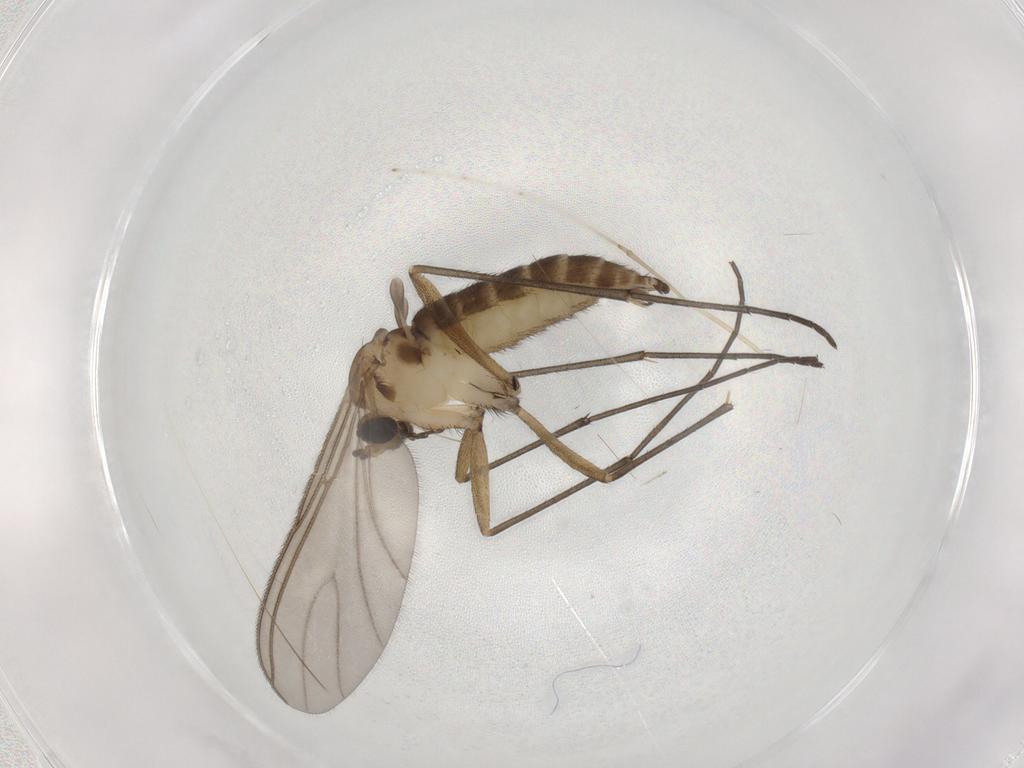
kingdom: Animalia
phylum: Arthropoda
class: Insecta
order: Diptera
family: Sciaridae
